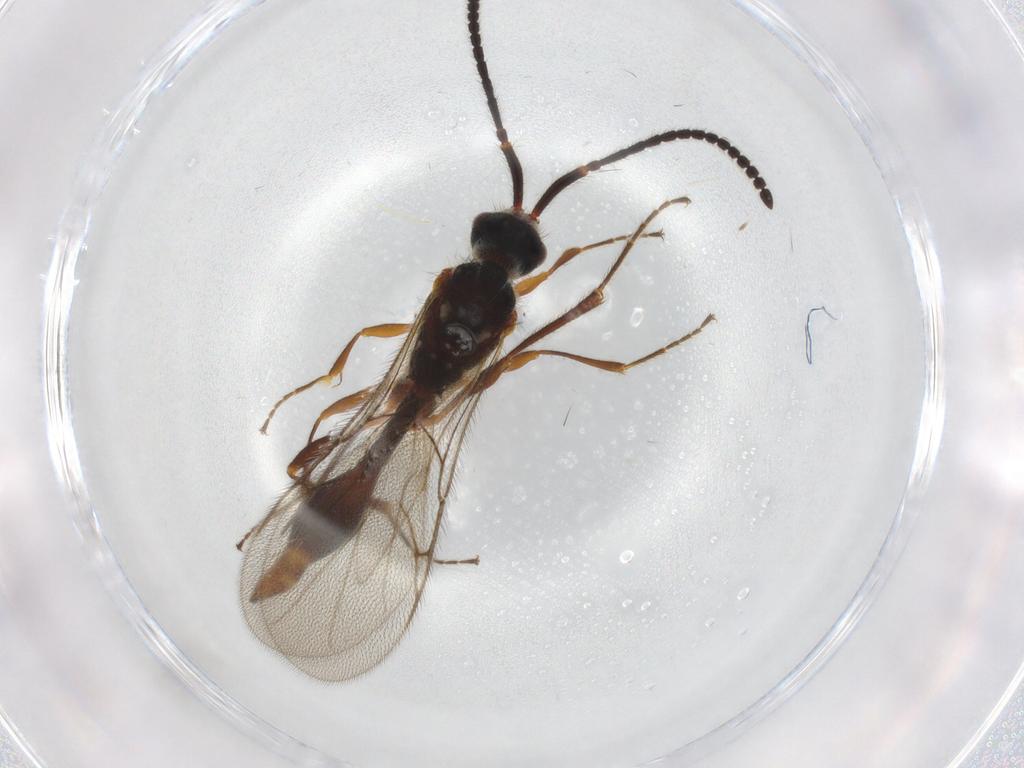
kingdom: Animalia
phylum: Arthropoda
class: Insecta
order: Hymenoptera
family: Diapriidae
